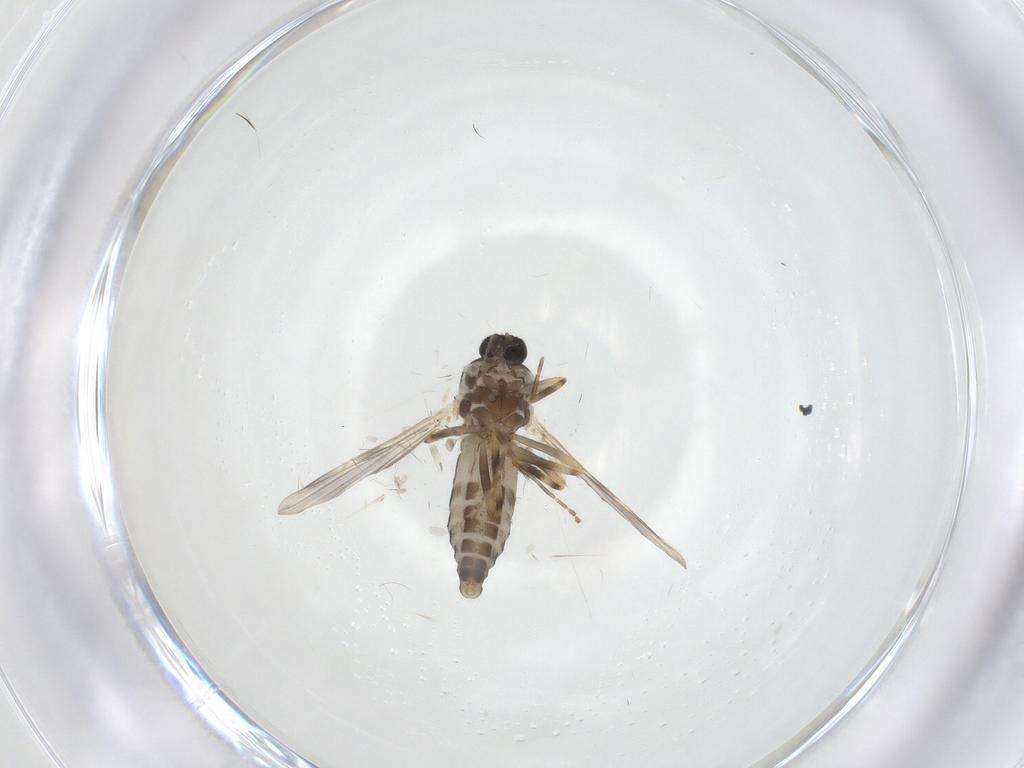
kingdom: Animalia
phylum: Arthropoda
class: Insecta
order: Diptera
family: Ceratopogonidae
